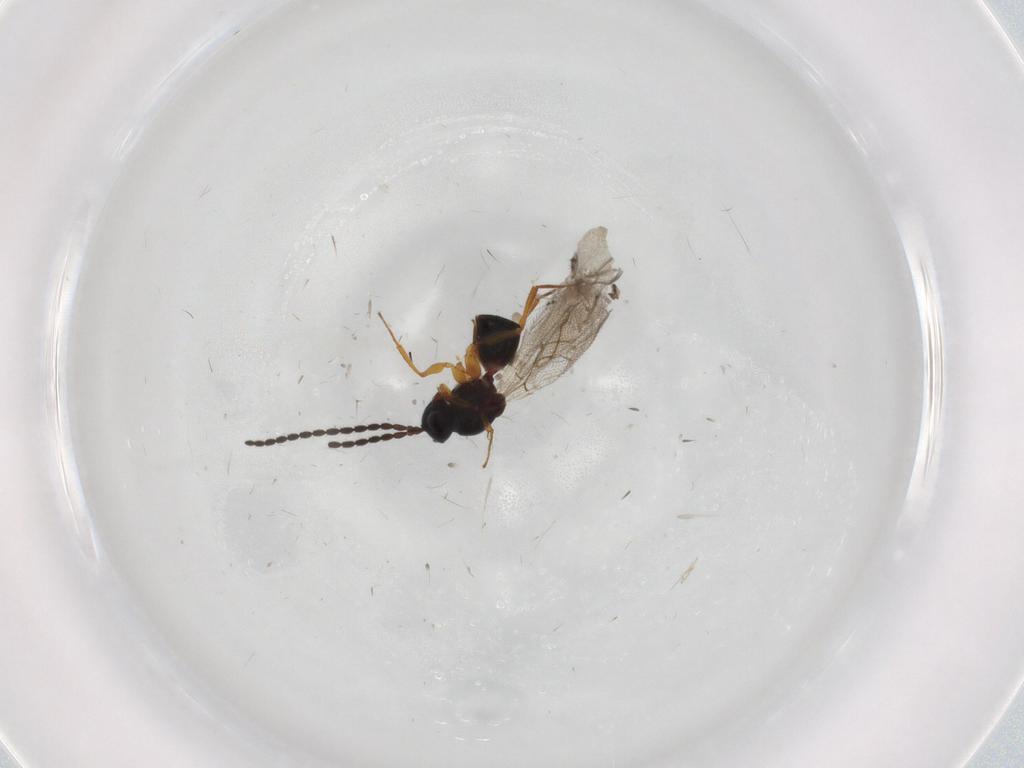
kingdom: Animalia
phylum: Arthropoda
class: Insecta
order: Hymenoptera
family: Figitidae
